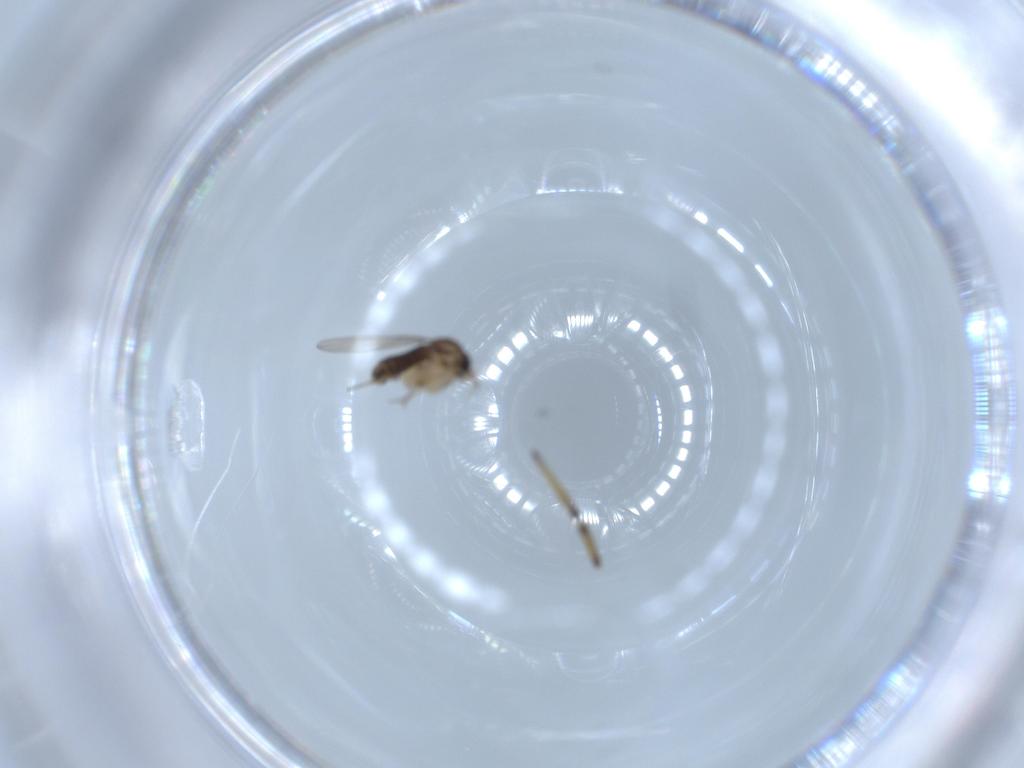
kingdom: Animalia
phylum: Arthropoda
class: Insecta
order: Diptera
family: Phoridae
